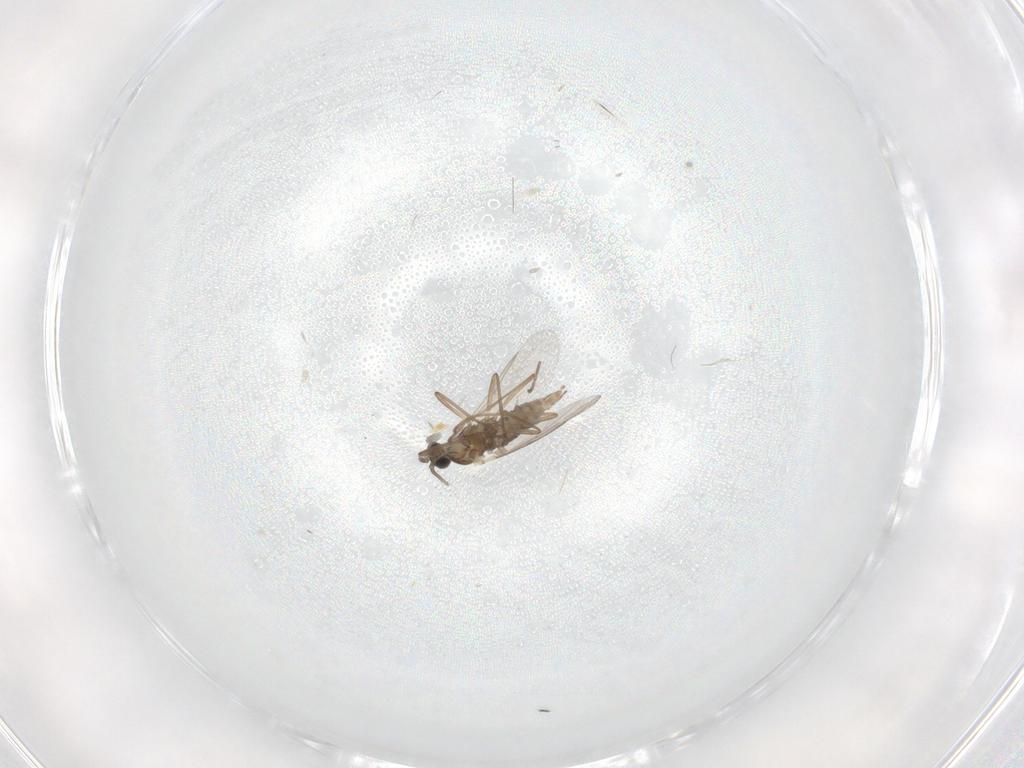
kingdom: Animalia
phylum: Arthropoda
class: Insecta
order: Diptera
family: Cecidomyiidae
